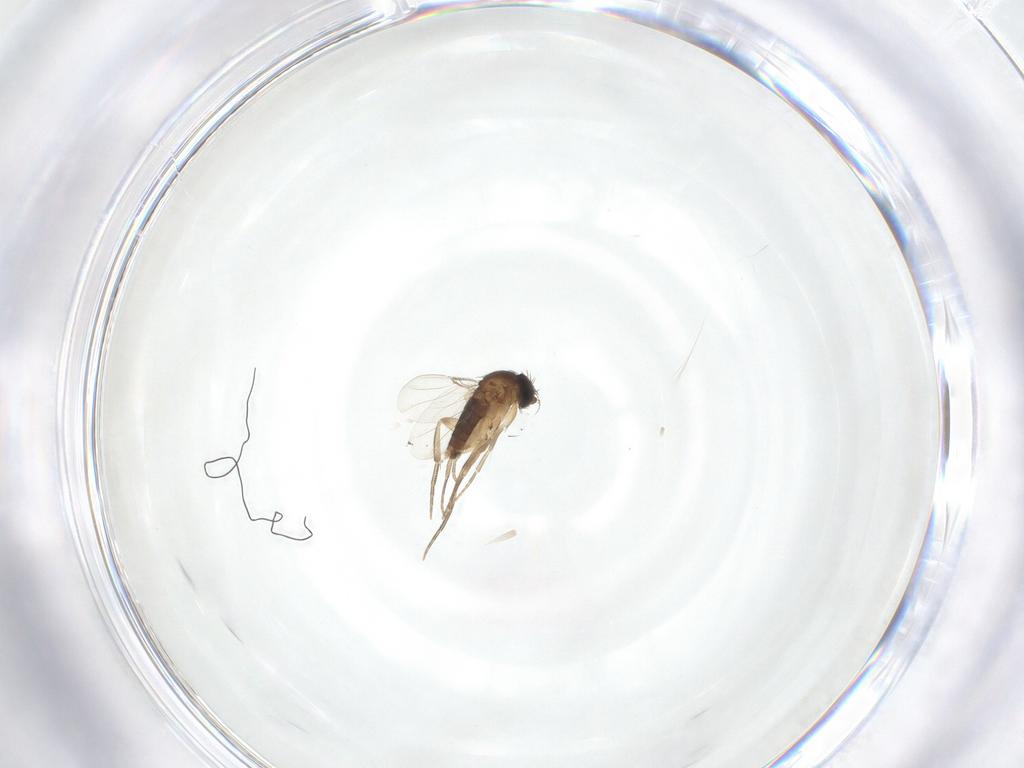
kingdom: Animalia
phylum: Arthropoda
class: Insecta
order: Diptera
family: Phoridae
